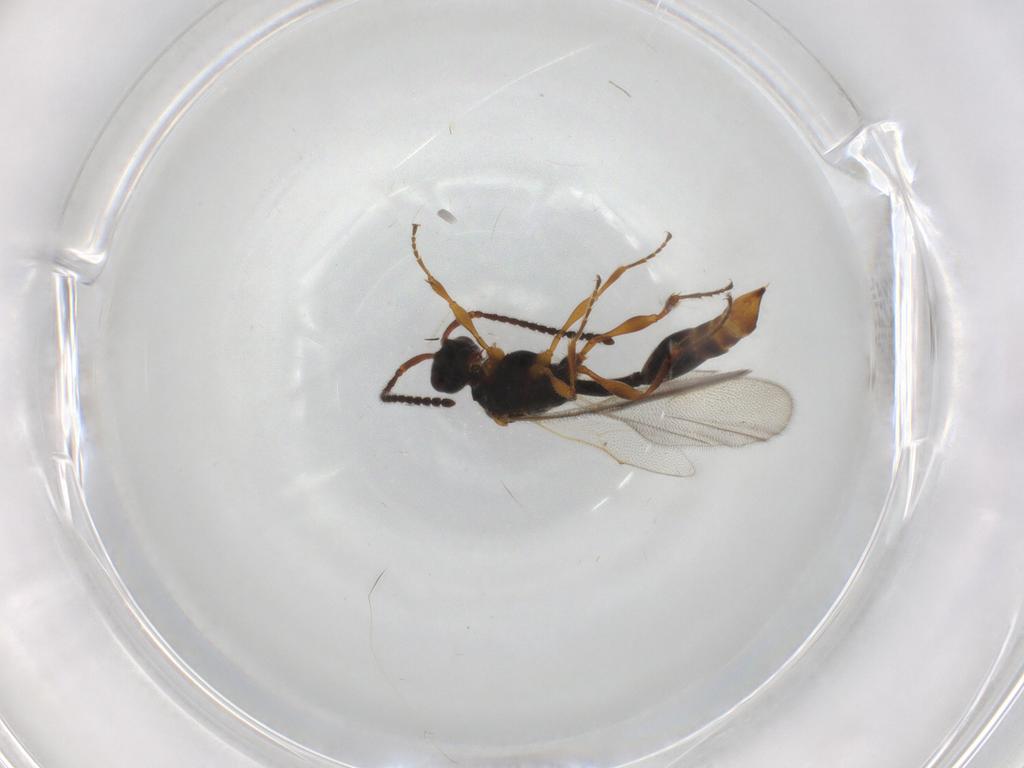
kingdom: Animalia
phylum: Arthropoda
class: Insecta
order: Hymenoptera
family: Diapriidae
